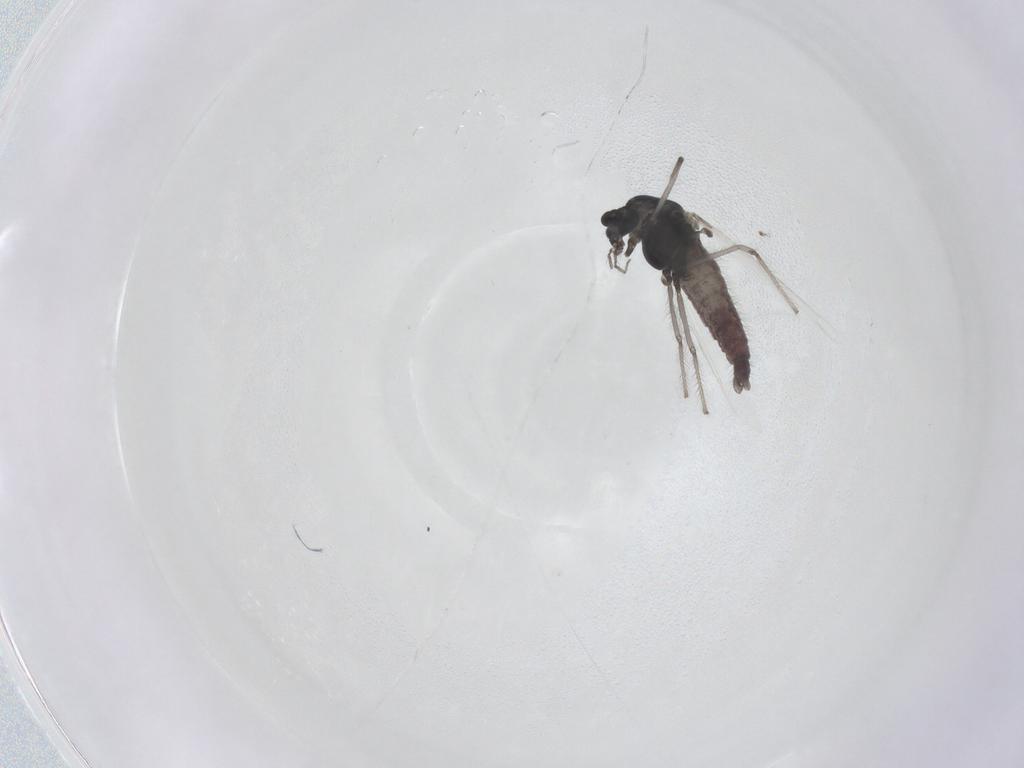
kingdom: Animalia
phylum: Arthropoda
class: Insecta
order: Diptera
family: Chironomidae
